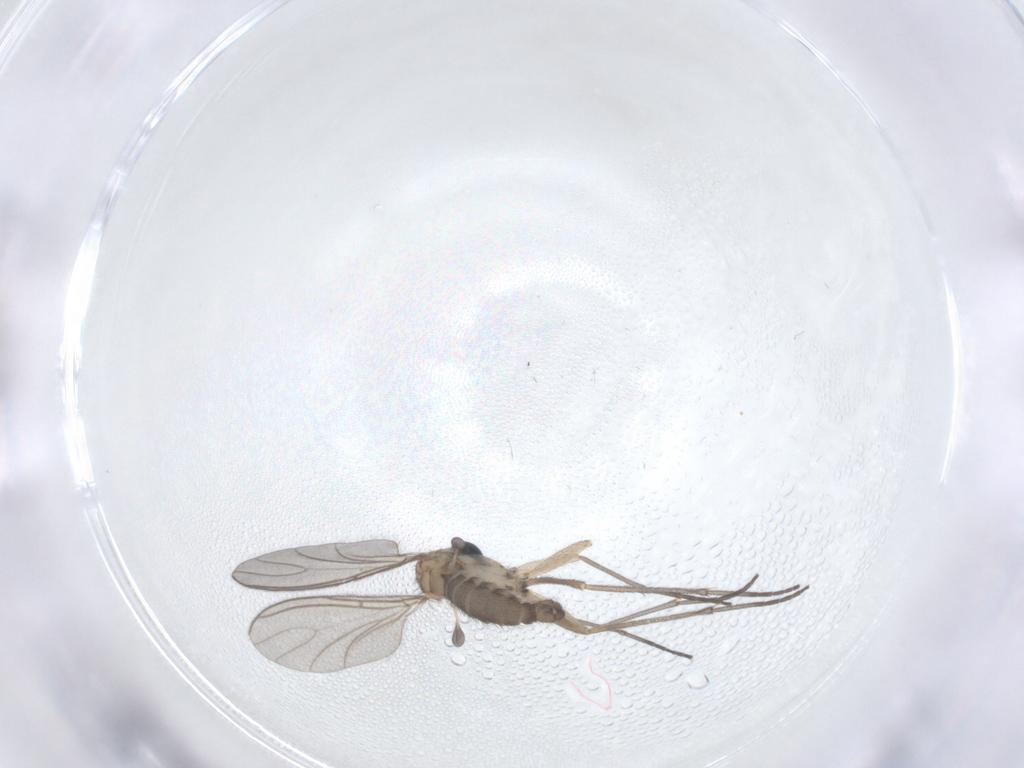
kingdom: Animalia
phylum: Arthropoda
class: Insecta
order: Diptera
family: Sciaridae
